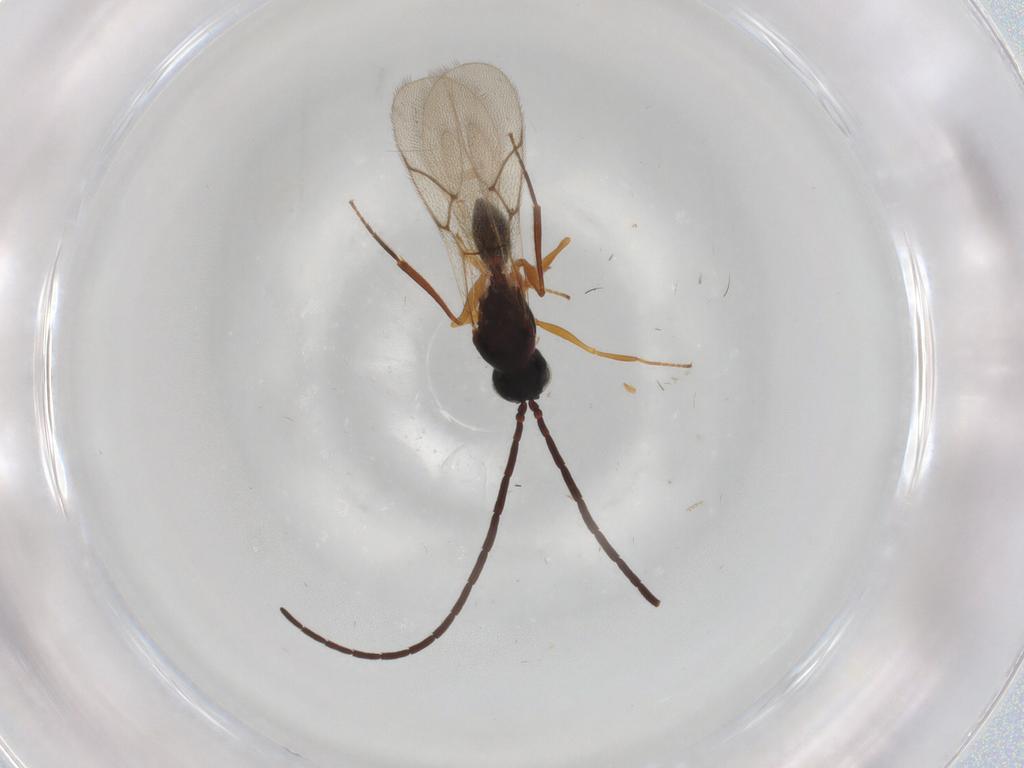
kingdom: Animalia
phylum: Arthropoda
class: Insecta
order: Hymenoptera
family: Figitidae
